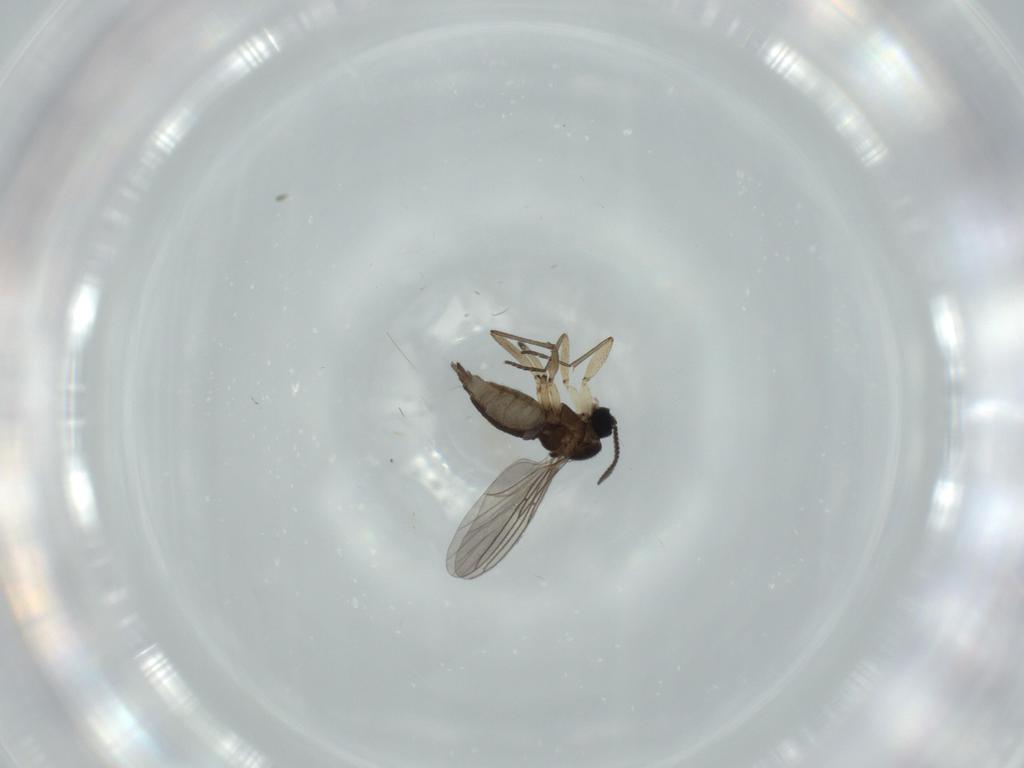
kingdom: Animalia
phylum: Arthropoda
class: Insecta
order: Diptera
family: Sciaridae
